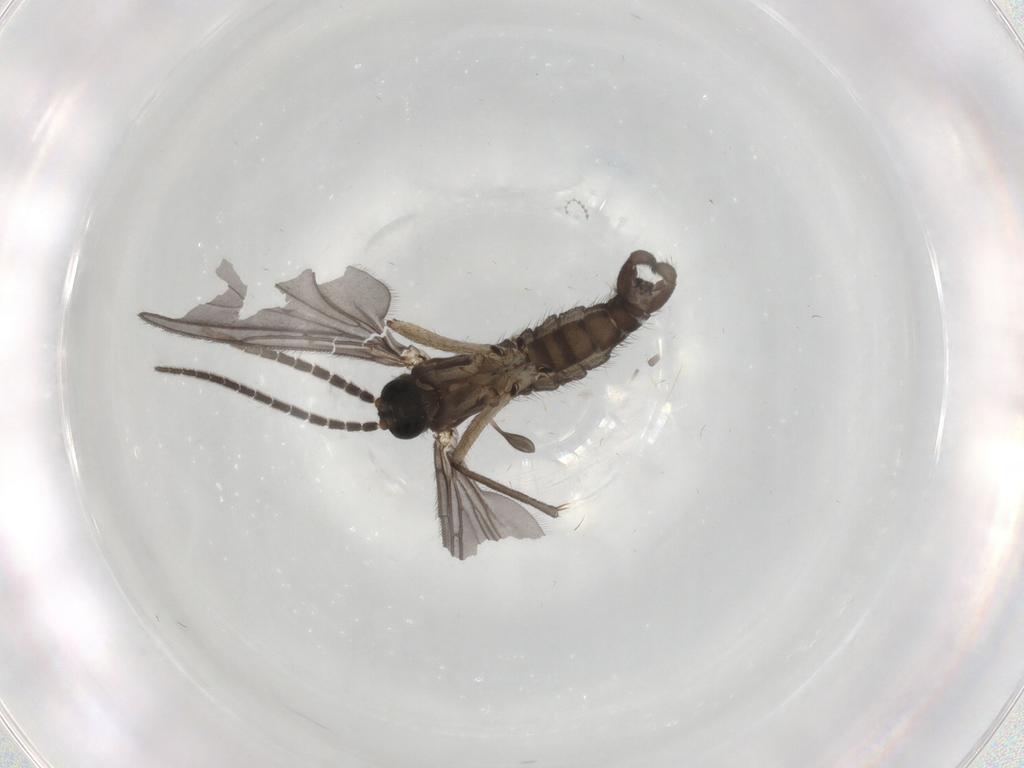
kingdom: Animalia
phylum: Arthropoda
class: Insecta
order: Diptera
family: Sciaridae
